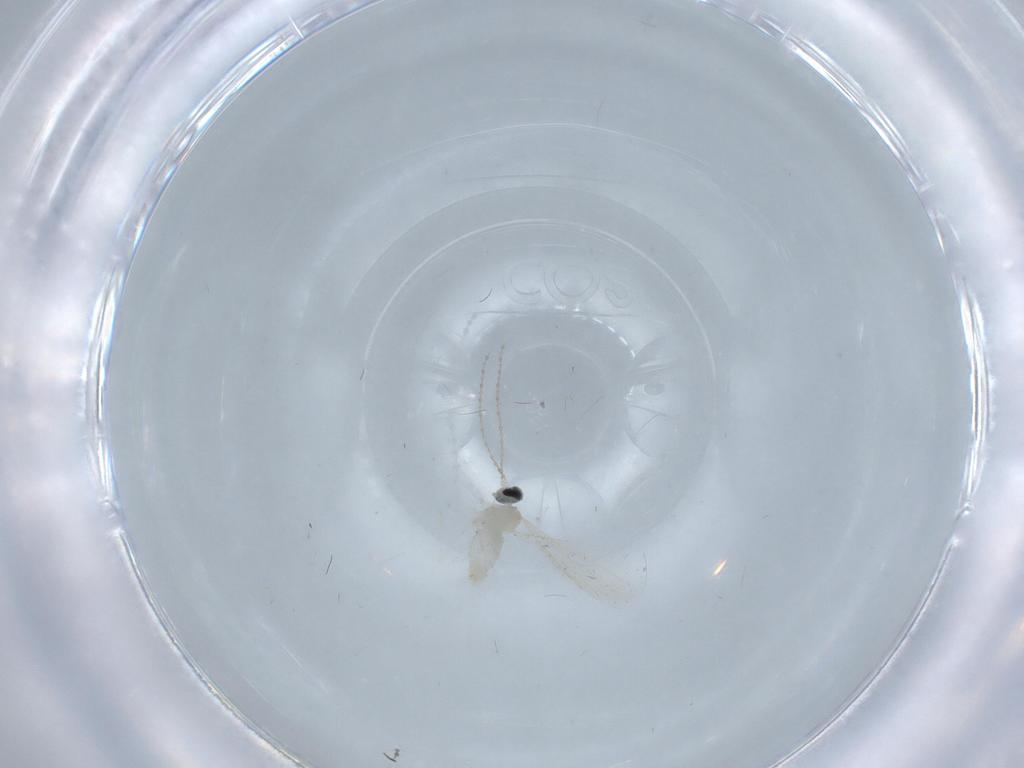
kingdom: Animalia
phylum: Arthropoda
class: Insecta
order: Diptera
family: Cecidomyiidae
